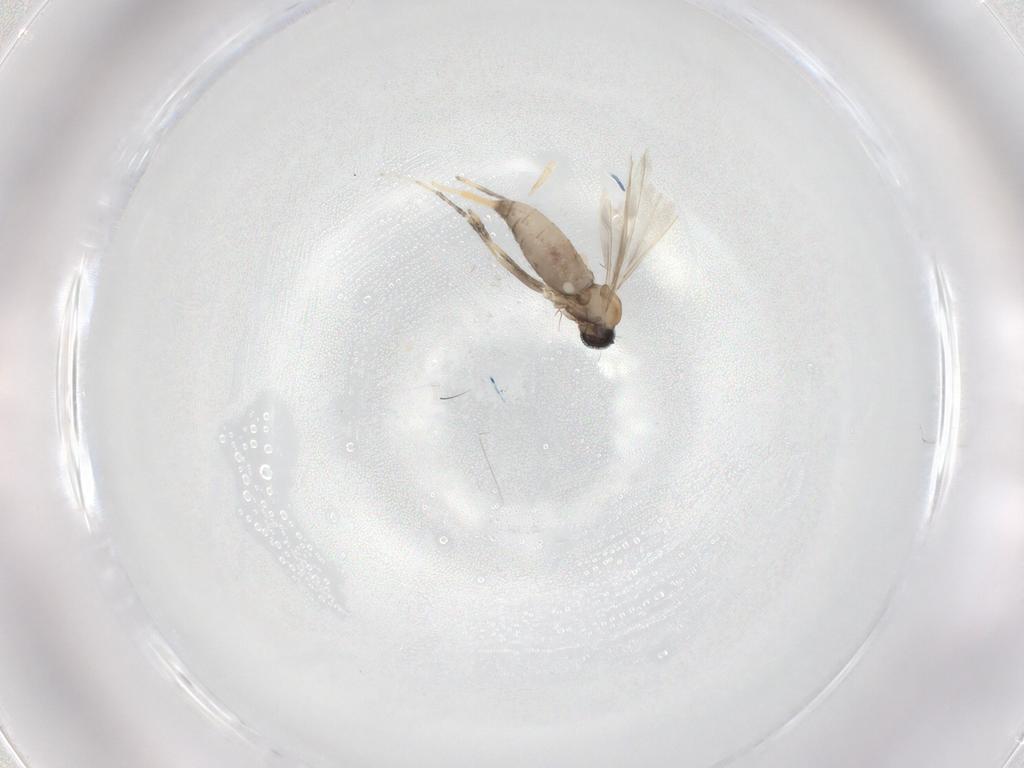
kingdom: Animalia
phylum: Arthropoda
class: Insecta
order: Diptera
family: Cecidomyiidae
